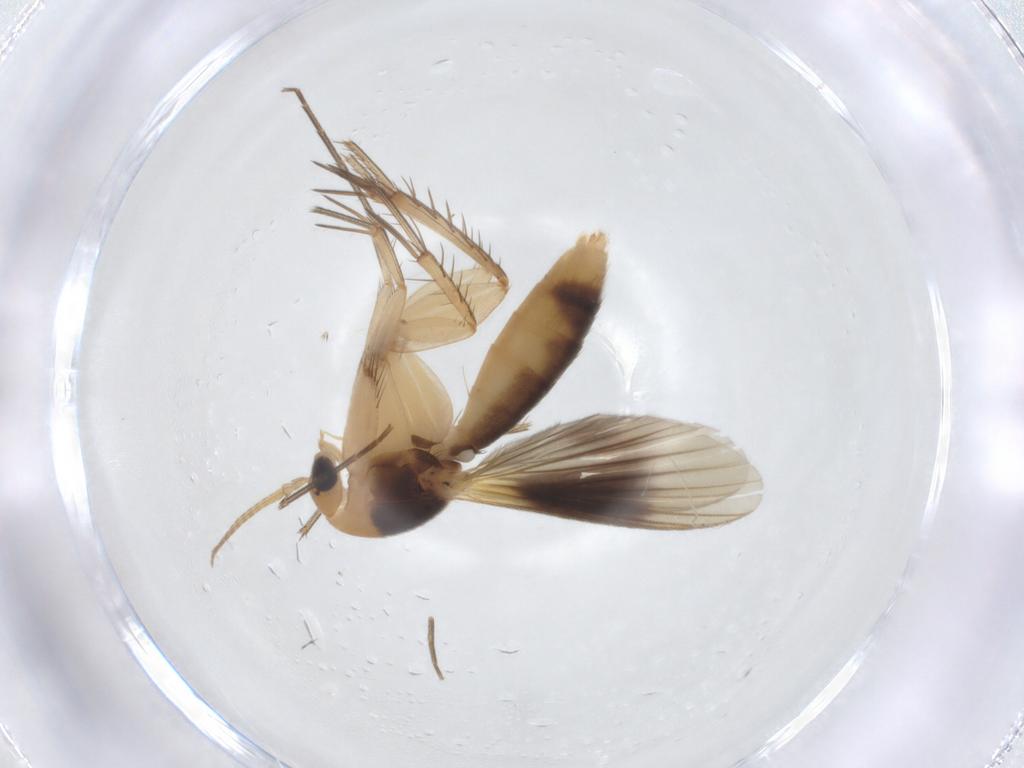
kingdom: Animalia
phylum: Arthropoda
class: Insecta
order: Diptera
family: Mycetophilidae
